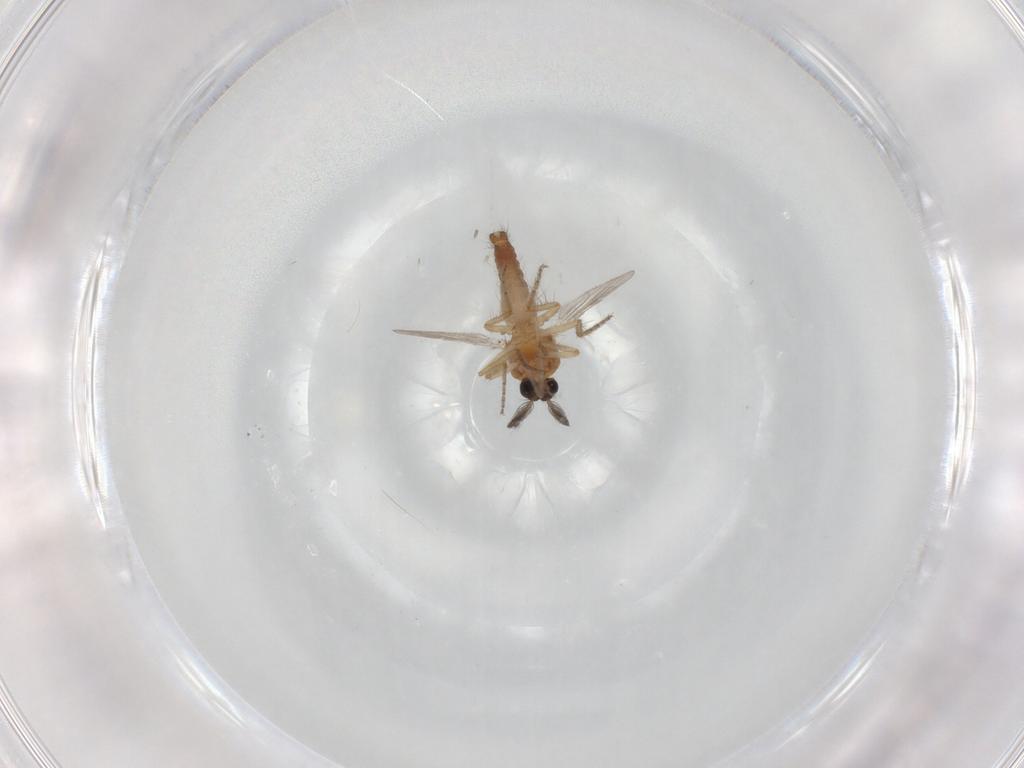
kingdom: Animalia
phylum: Arthropoda
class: Insecta
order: Diptera
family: Ceratopogonidae
